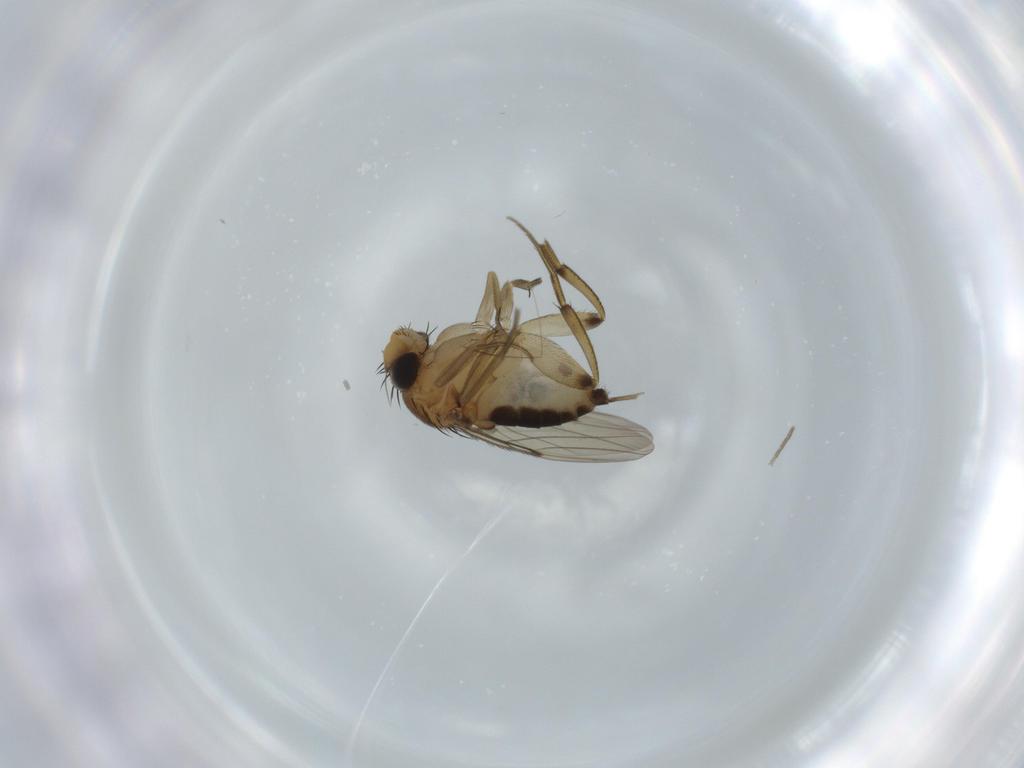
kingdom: Animalia
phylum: Arthropoda
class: Insecta
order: Diptera
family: Ceratopogonidae
